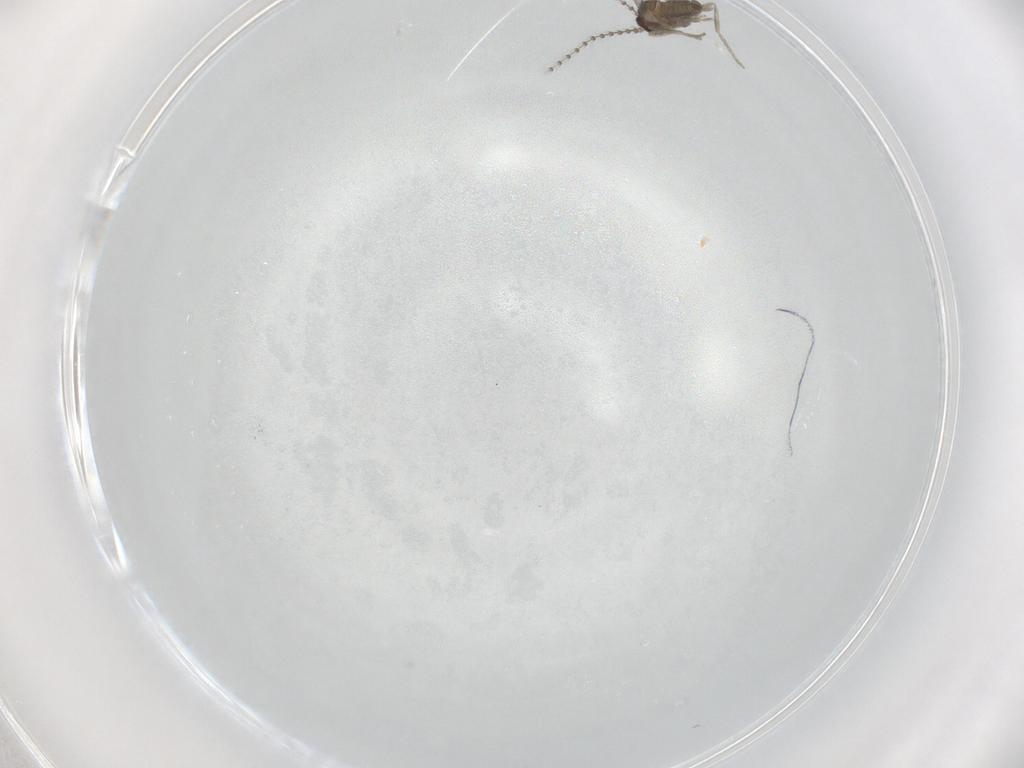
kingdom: Animalia
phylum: Arthropoda
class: Insecta
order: Diptera
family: Cecidomyiidae
